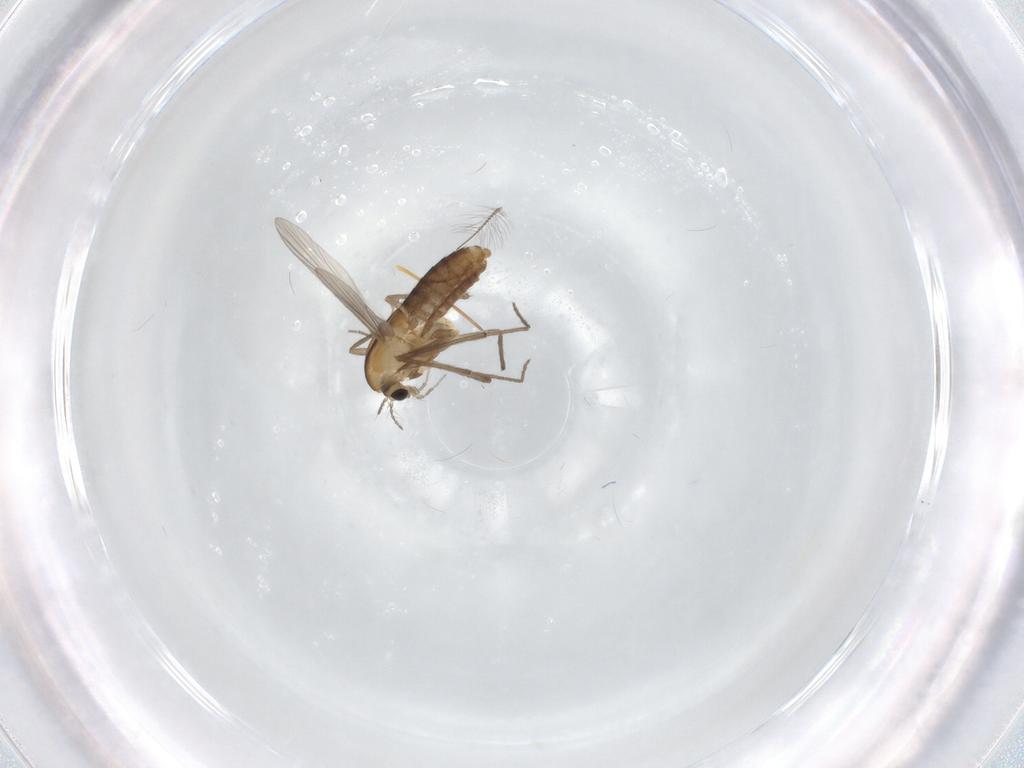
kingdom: Animalia
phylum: Arthropoda
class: Insecta
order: Diptera
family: Chironomidae
